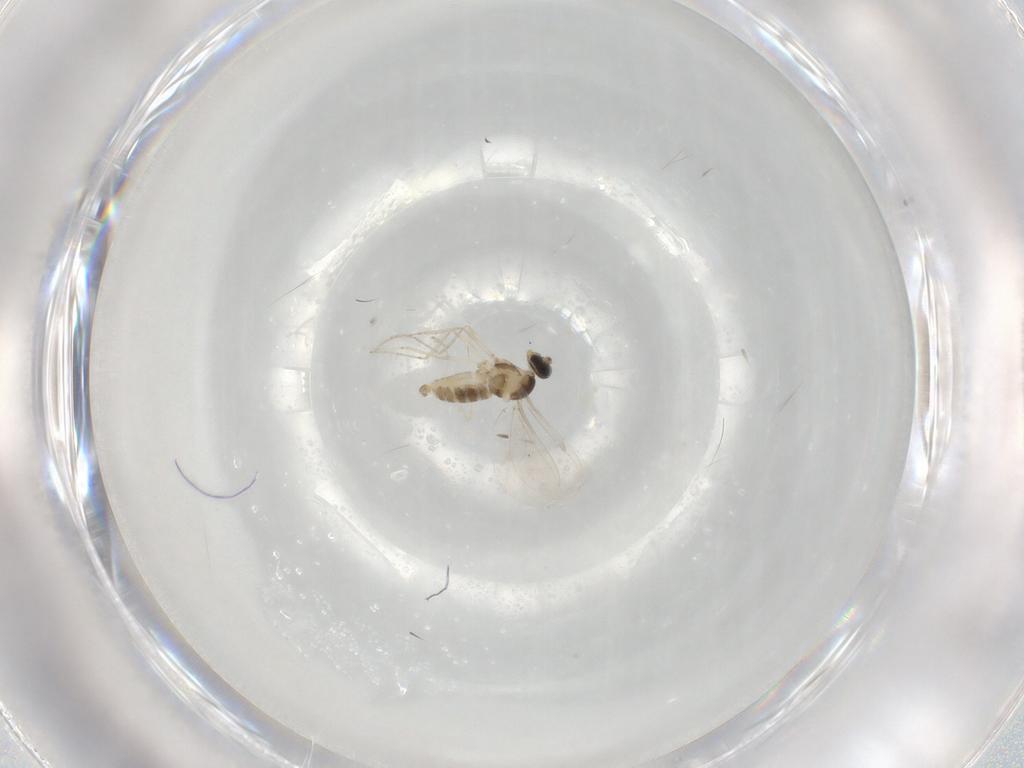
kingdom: Animalia
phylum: Arthropoda
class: Insecta
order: Diptera
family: Cecidomyiidae
